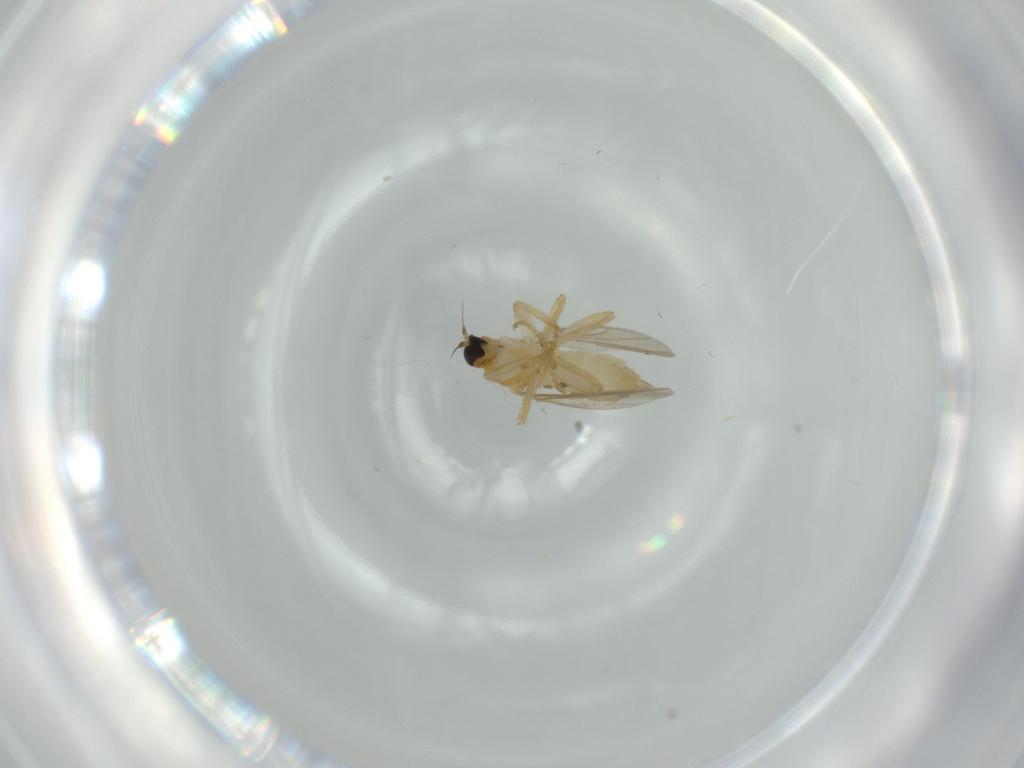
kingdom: Animalia
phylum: Arthropoda
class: Insecta
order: Diptera
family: Hybotidae
